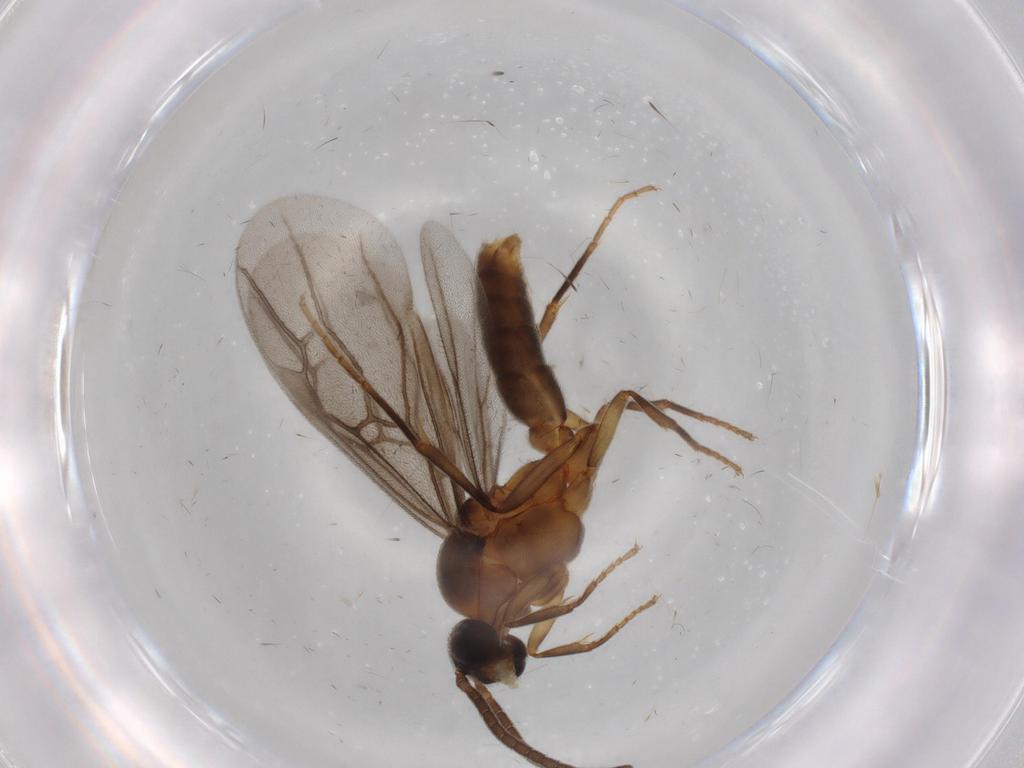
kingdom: Animalia
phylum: Arthropoda
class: Insecta
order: Hymenoptera
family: Formicidae
